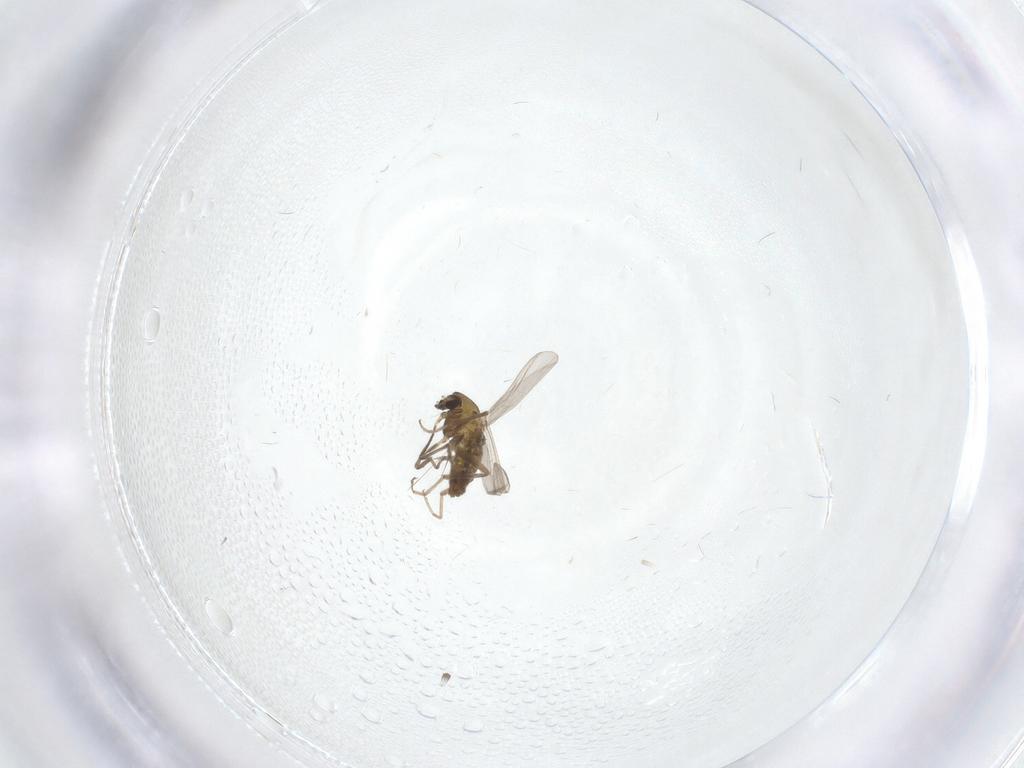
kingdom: Animalia
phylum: Arthropoda
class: Insecta
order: Diptera
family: Chironomidae
